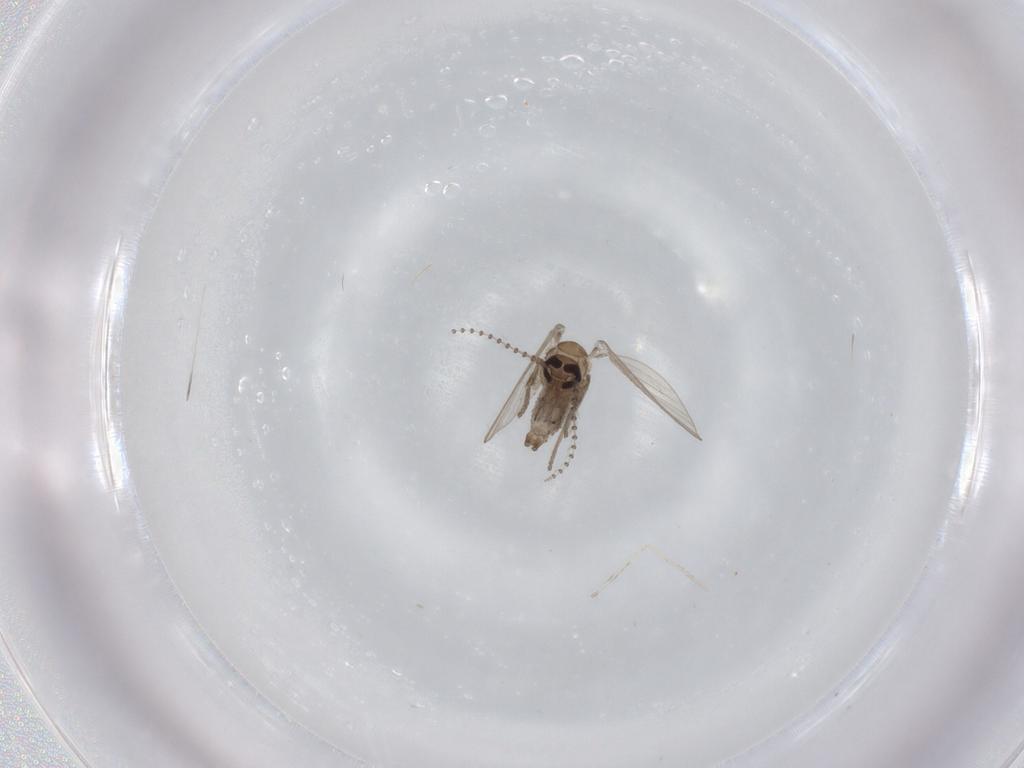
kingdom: Animalia
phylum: Arthropoda
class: Insecta
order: Diptera
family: Psychodidae
